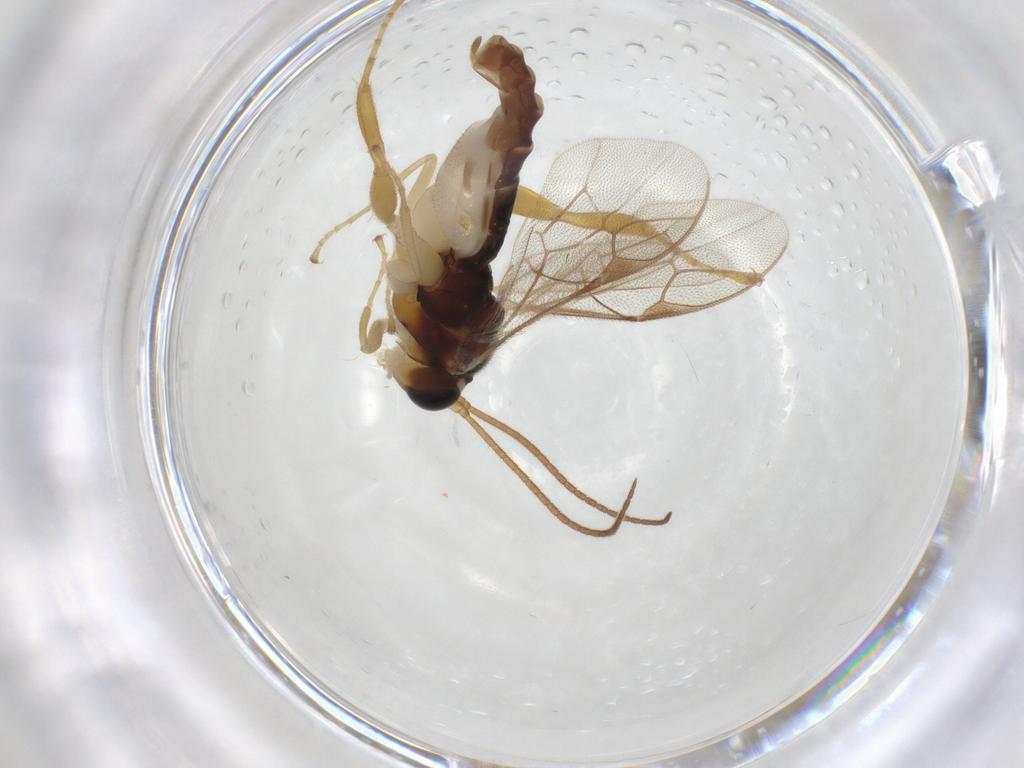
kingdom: Animalia
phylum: Arthropoda
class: Insecta
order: Hymenoptera
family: Ichneumonidae
